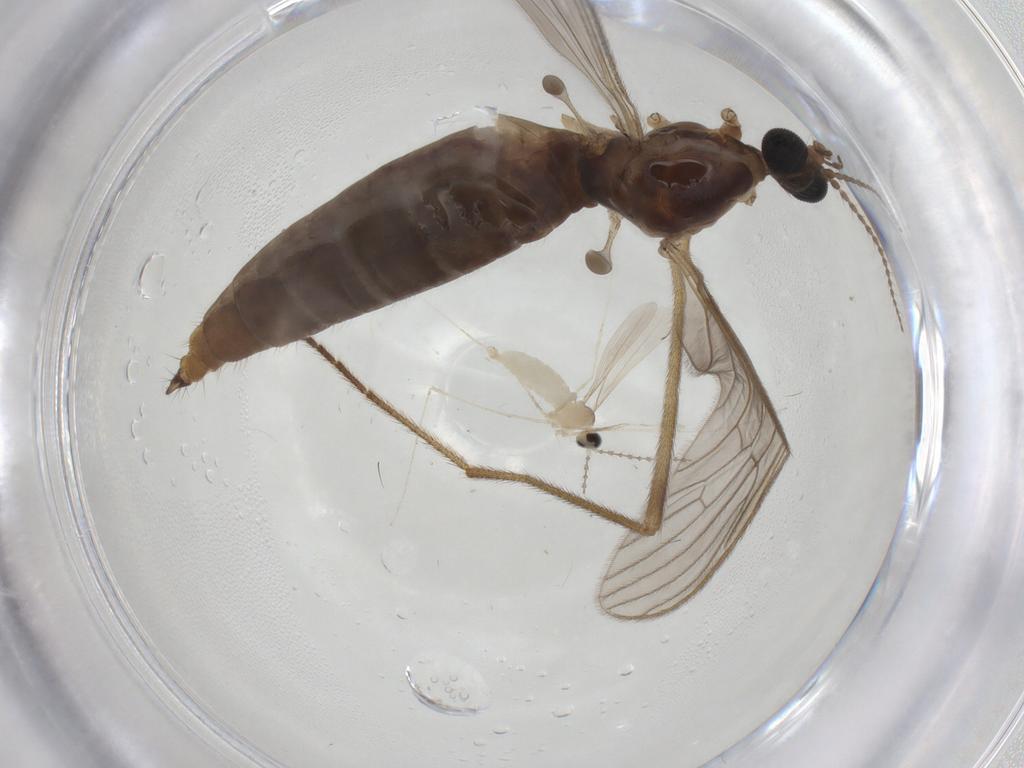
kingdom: Animalia
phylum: Arthropoda
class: Insecta
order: Diptera
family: Limoniidae
